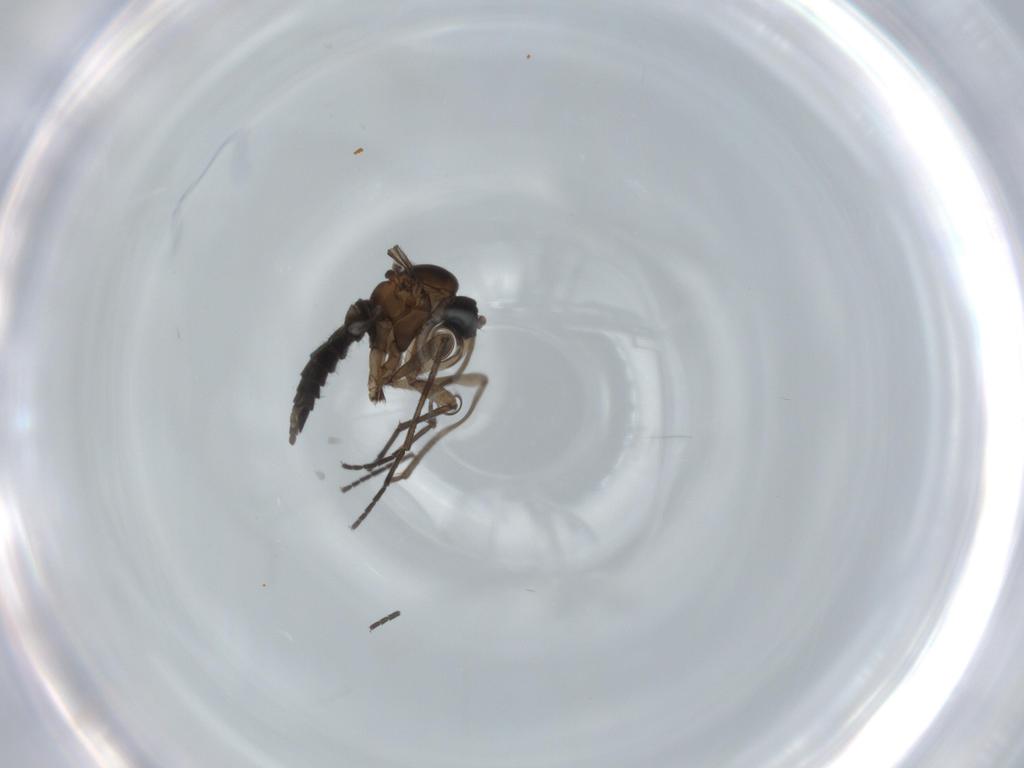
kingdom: Animalia
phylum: Arthropoda
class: Insecta
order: Diptera
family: Sciaridae
